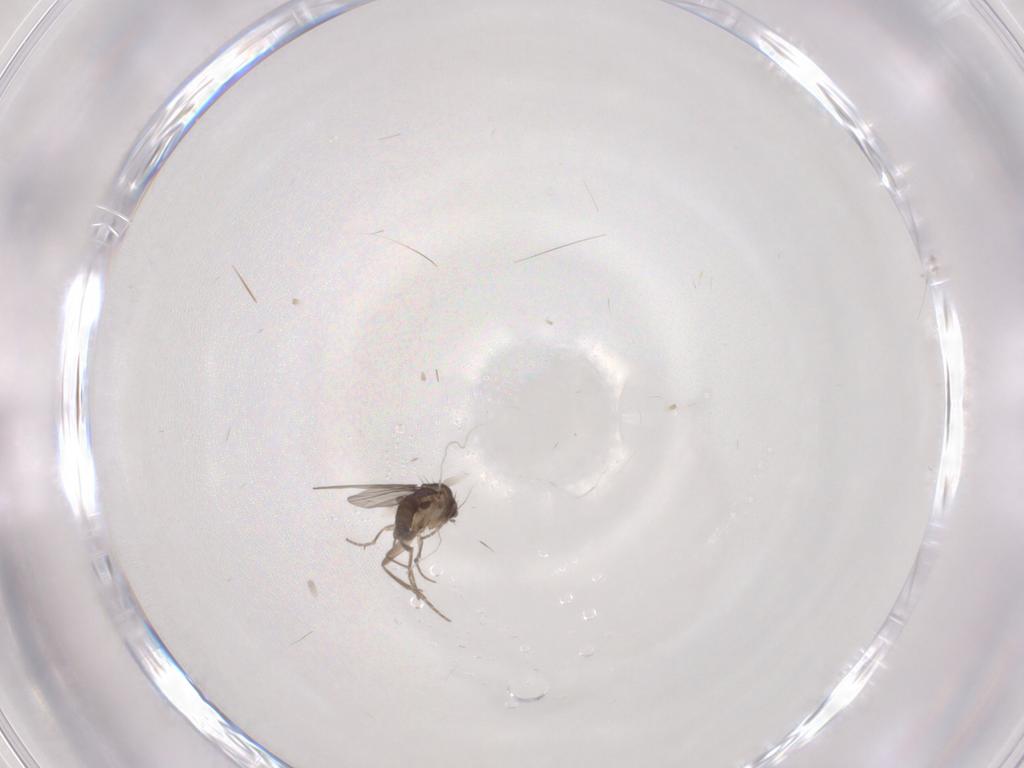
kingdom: Animalia
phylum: Arthropoda
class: Insecta
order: Diptera
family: Phoridae
